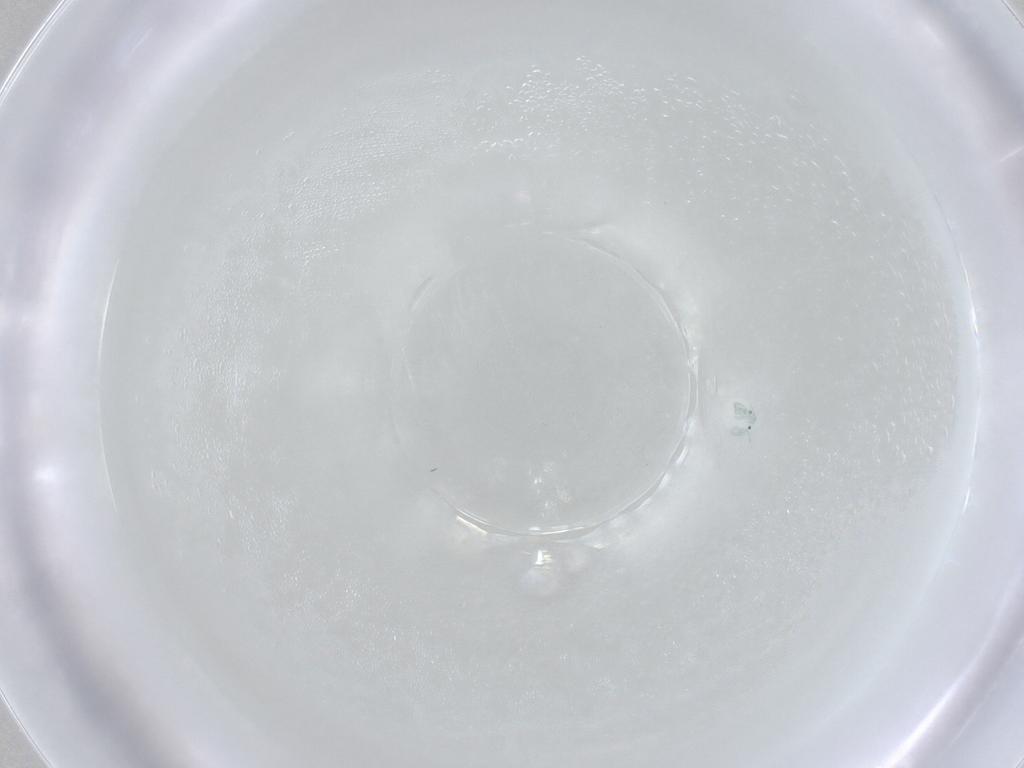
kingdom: Animalia
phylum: Arthropoda
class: Arachnida
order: Trombidiformes
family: Arrenuridae
